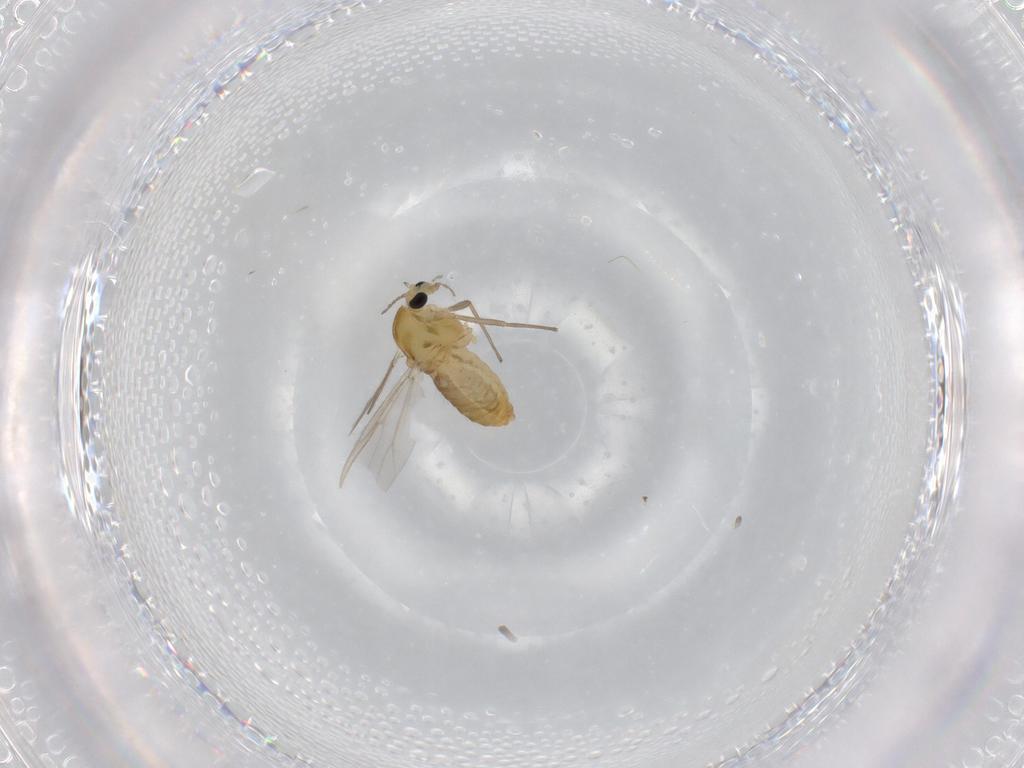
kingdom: Animalia
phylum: Arthropoda
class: Insecta
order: Diptera
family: Chironomidae
